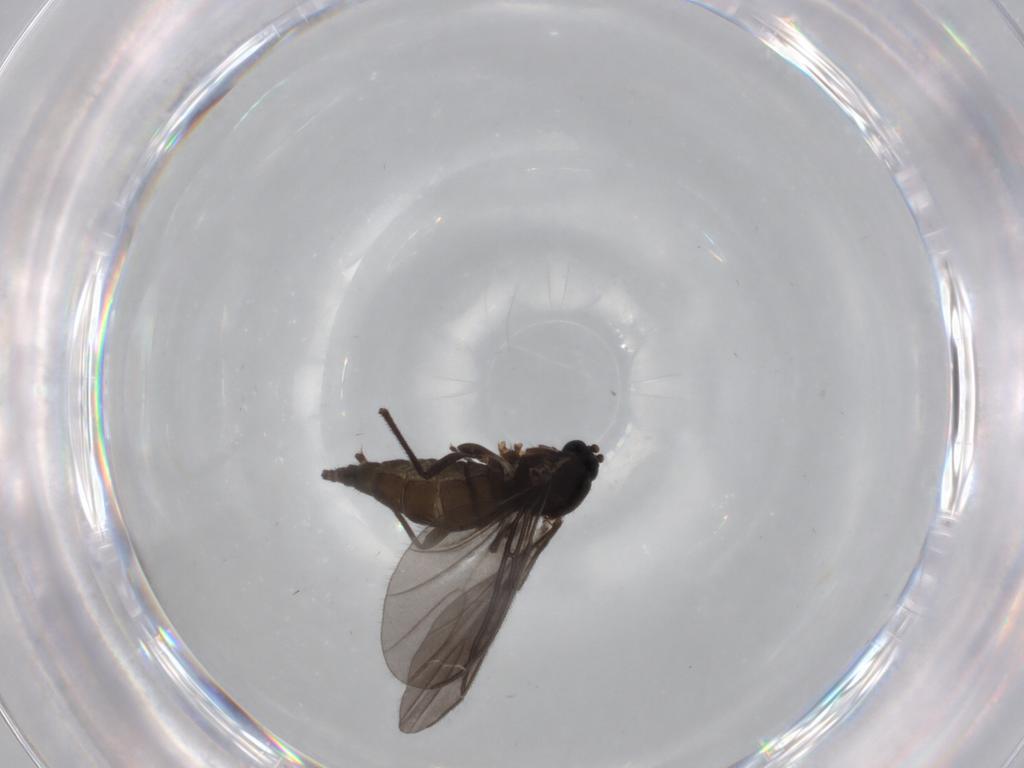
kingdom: Animalia
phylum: Arthropoda
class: Insecta
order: Diptera
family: Sciaridae
